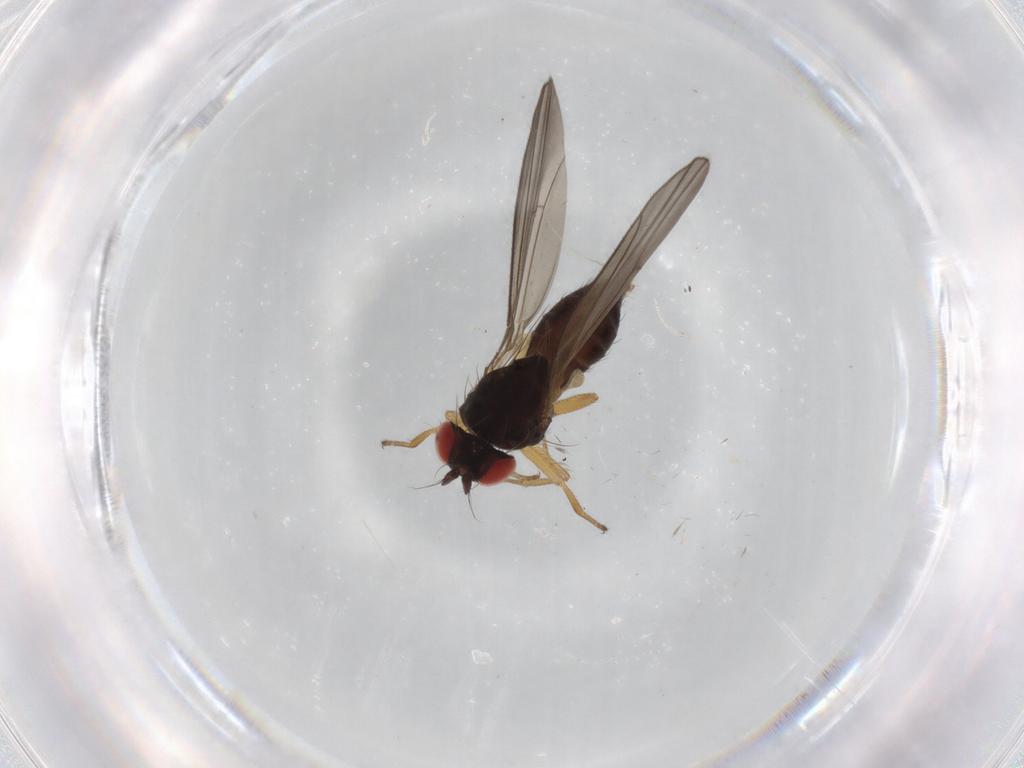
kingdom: Animalia
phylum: Arthropoda
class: Insecta
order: Diptera
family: Drosophilidae
